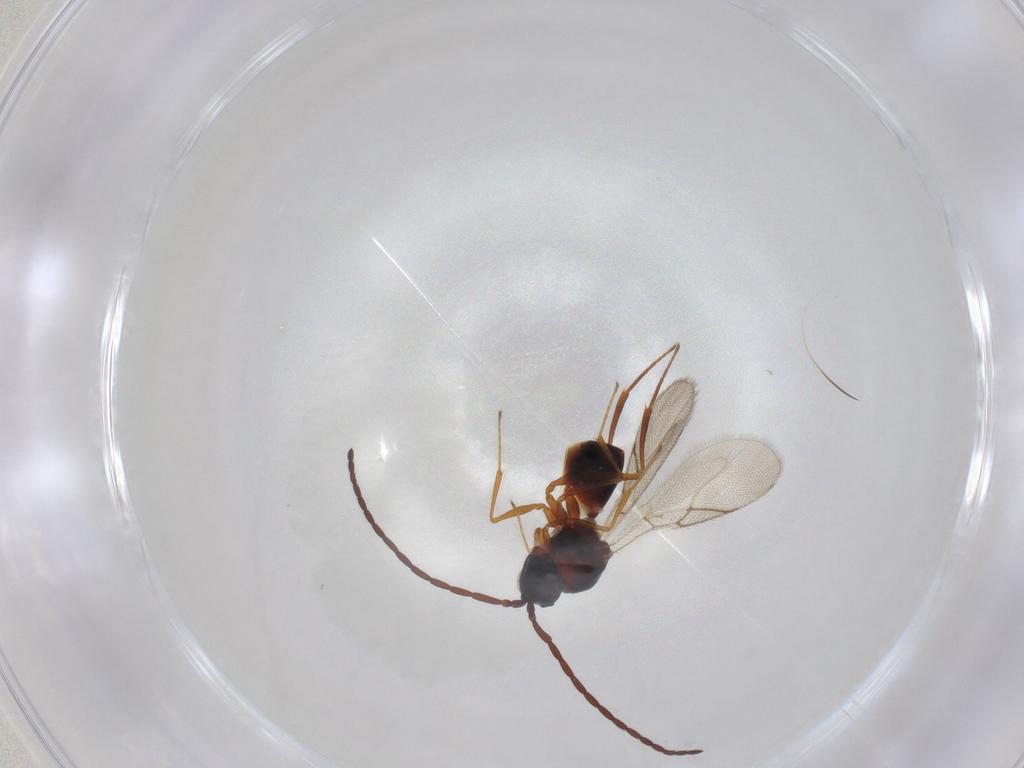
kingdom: Animalia
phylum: Arthropoda
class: Insecta
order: Hymenoptera
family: Figitidae
